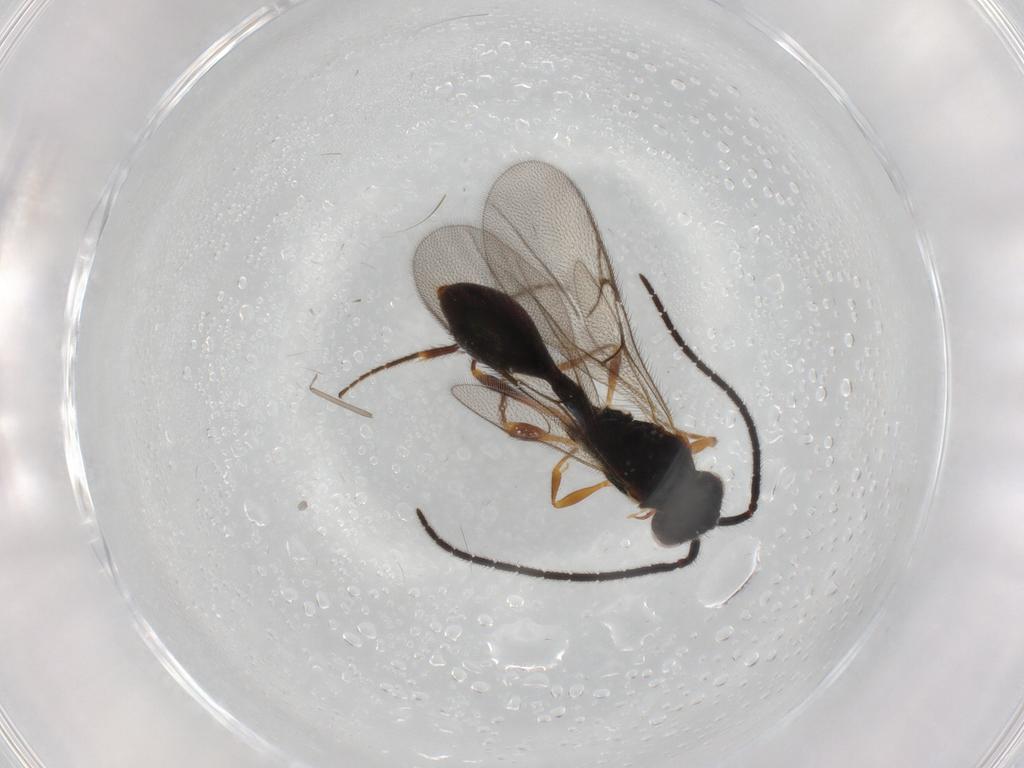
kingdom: Animalia
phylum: Arthropoda
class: Insecta
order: Hymenoptera
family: Diapriidae
